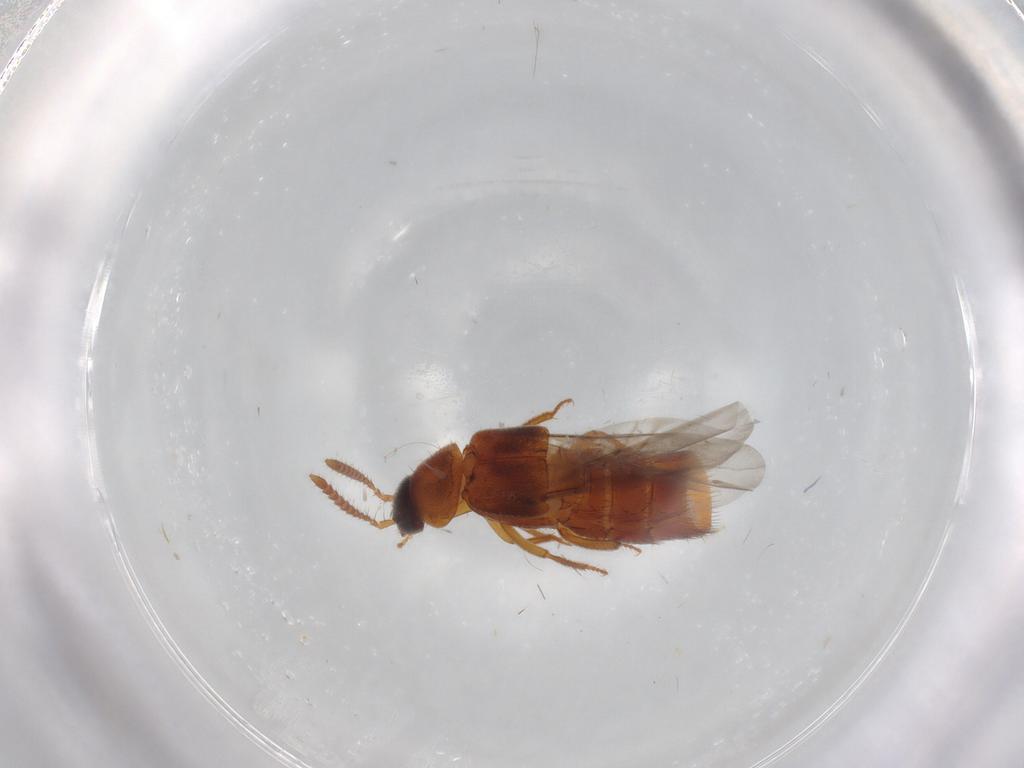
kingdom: Animalia
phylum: Arthropoda
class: Insecta
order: Coleoptera
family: Staphylinidae
